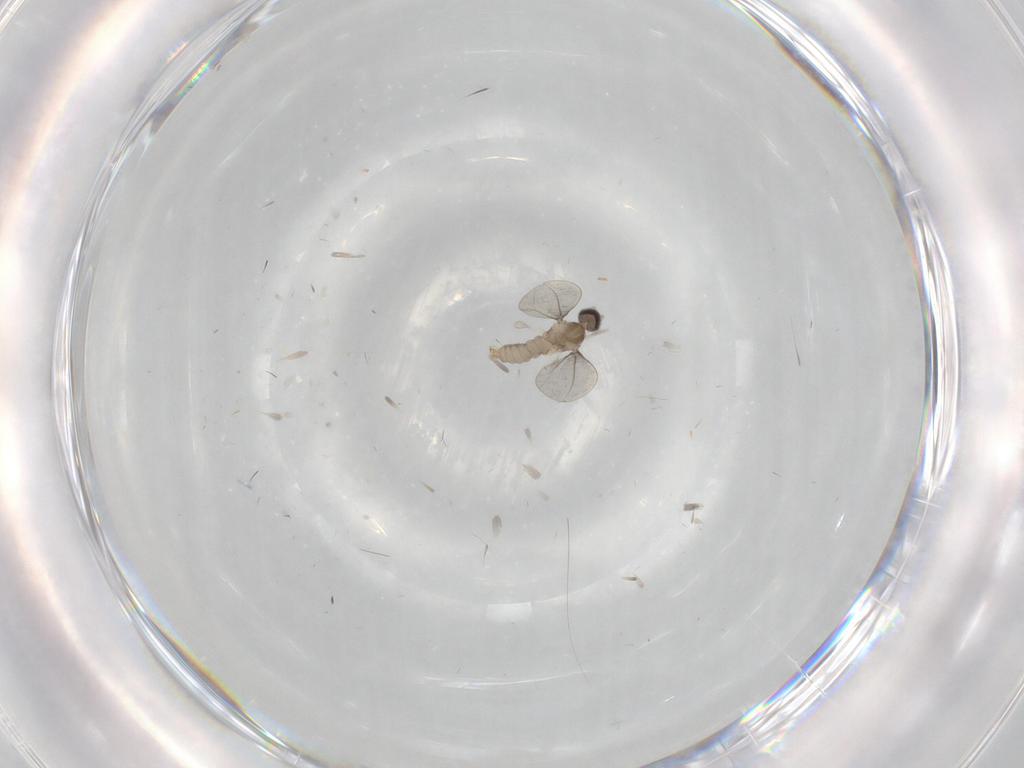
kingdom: Animalia
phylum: Arthropoda
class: Insecta
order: Diptera
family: Cecidomyiidae
